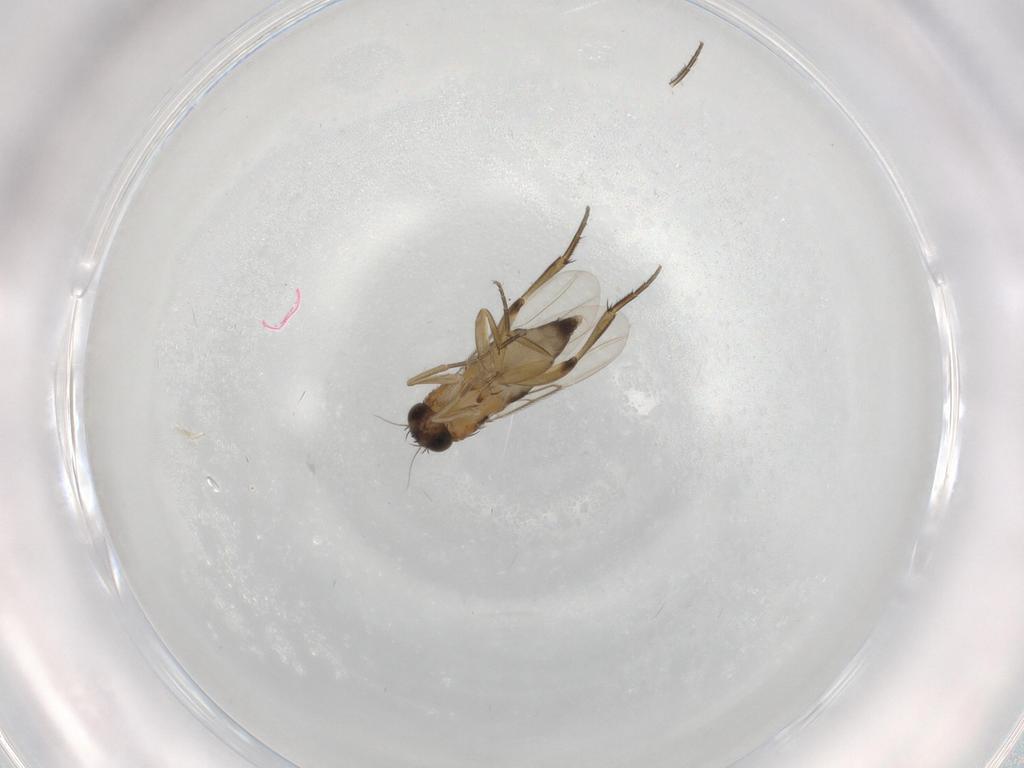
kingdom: Animalia
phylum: Arthropoda
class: Insecta
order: Diptera
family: Phoridae
